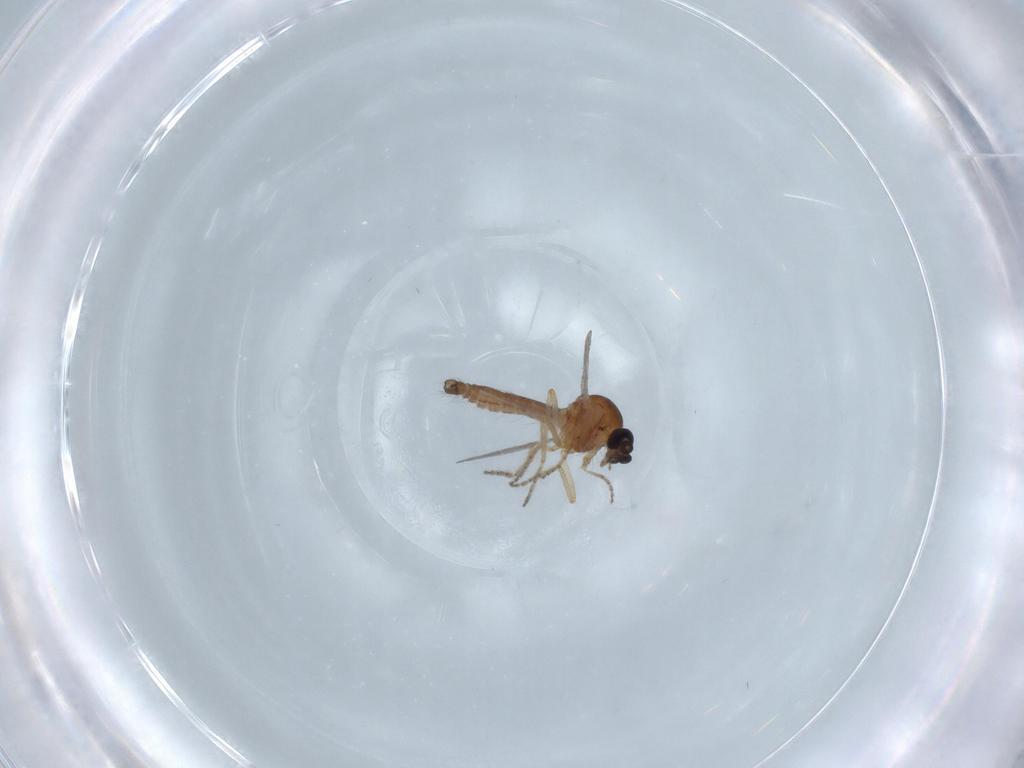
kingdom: Animalia
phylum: Arthropoda
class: Insecta
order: Diptera
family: Ceratopogonidae
